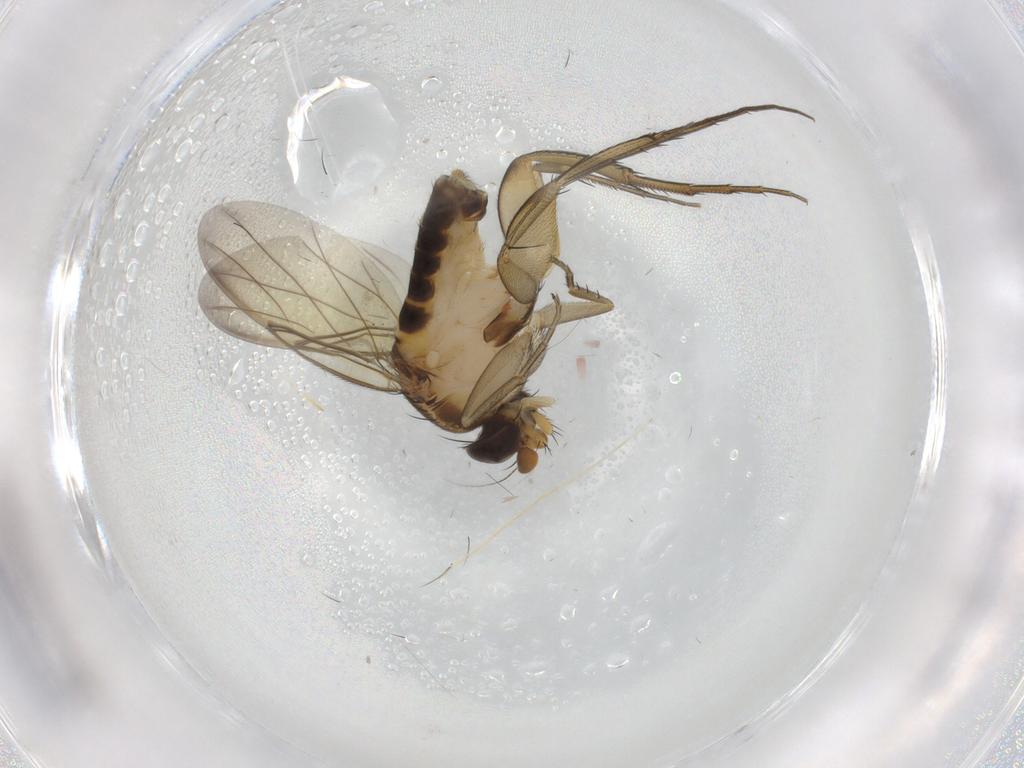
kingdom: Animalia
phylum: Arthropoda
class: Insecta
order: Diptera
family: Phoridae
